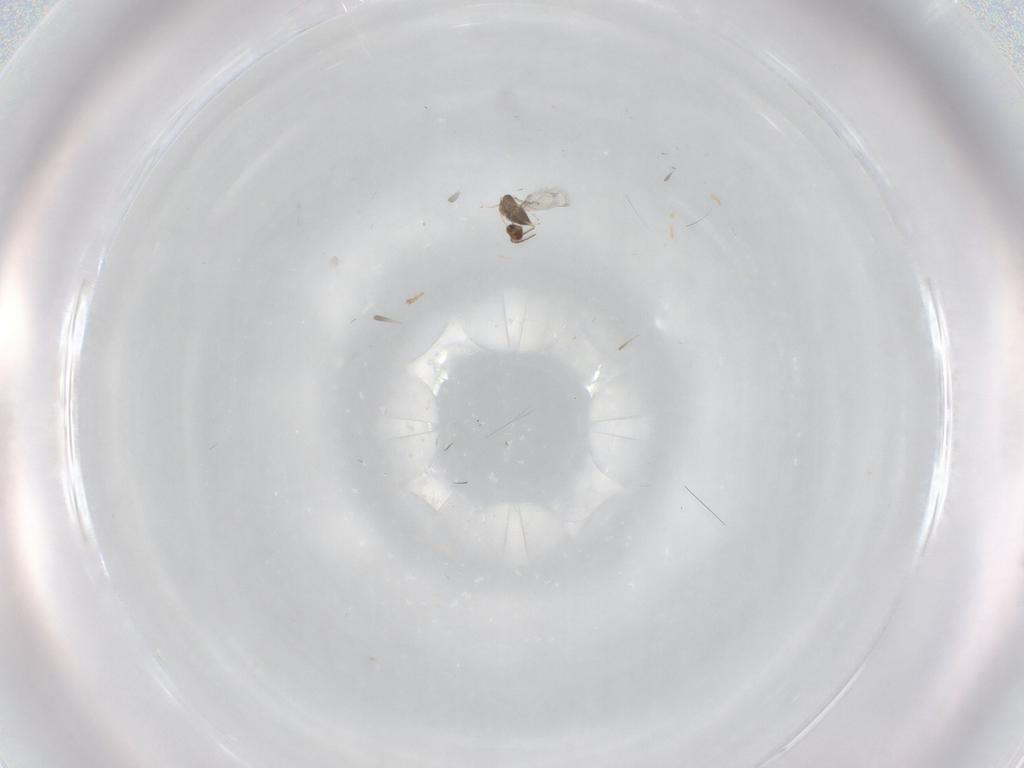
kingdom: Animalia
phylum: Arthropoda
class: Insecta
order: Hymenoptera
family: Trichogrammatidae
